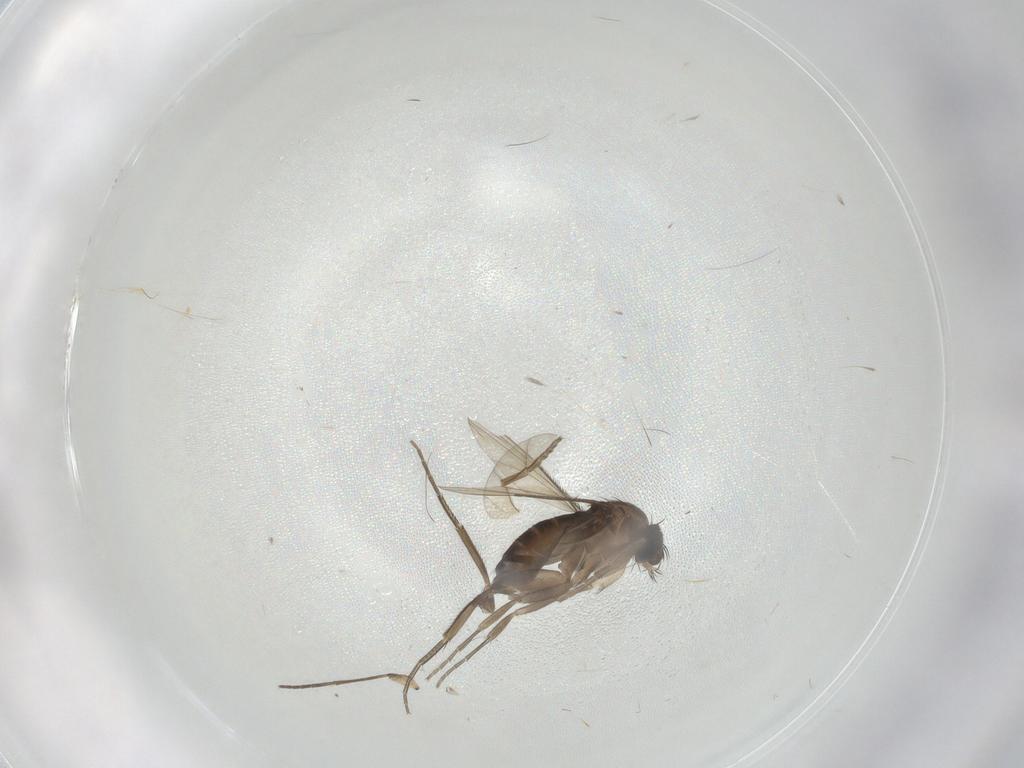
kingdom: Animalia
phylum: Arthropoda
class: Insecta
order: Diptera
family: Phoridae
